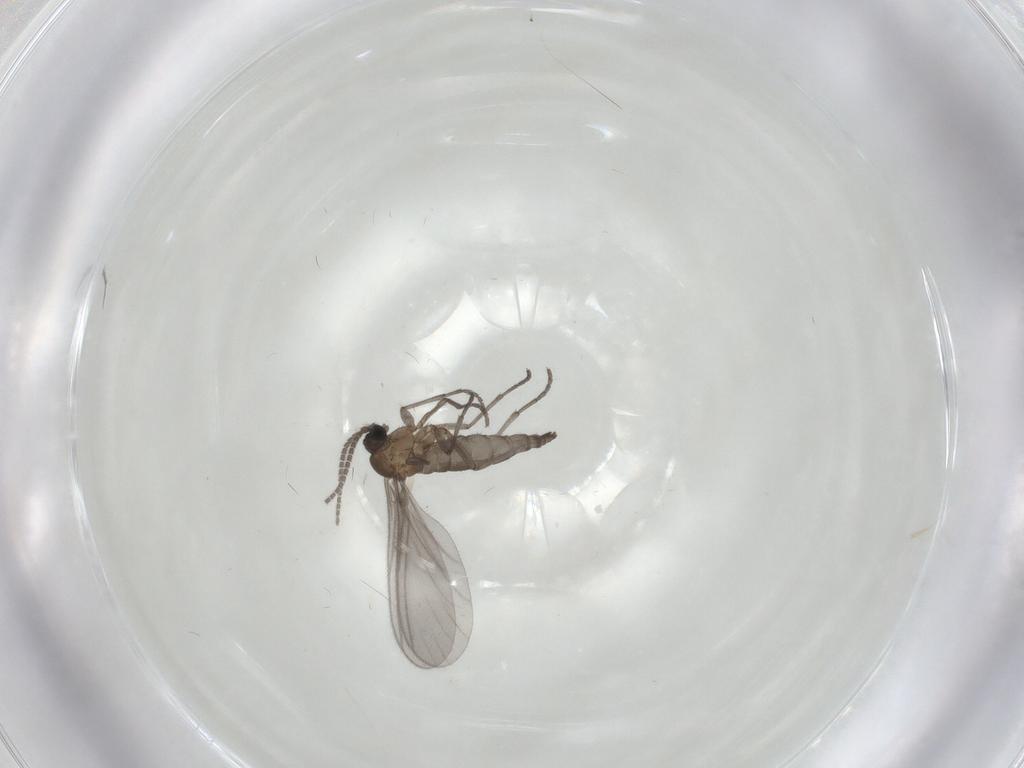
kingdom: Animalia
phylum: Arthropoda
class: Insecta
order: Diptera
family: Sciaridae
